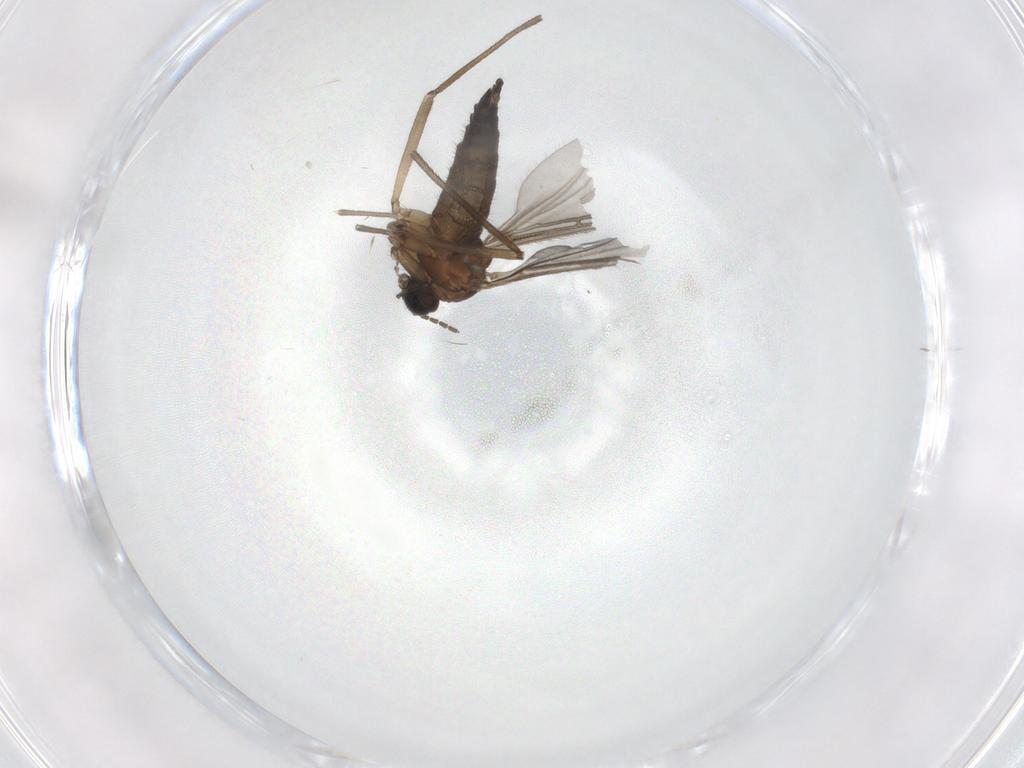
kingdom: Animalia
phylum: Arthropoda
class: Insecta
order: Diptera
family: Sciaridae
